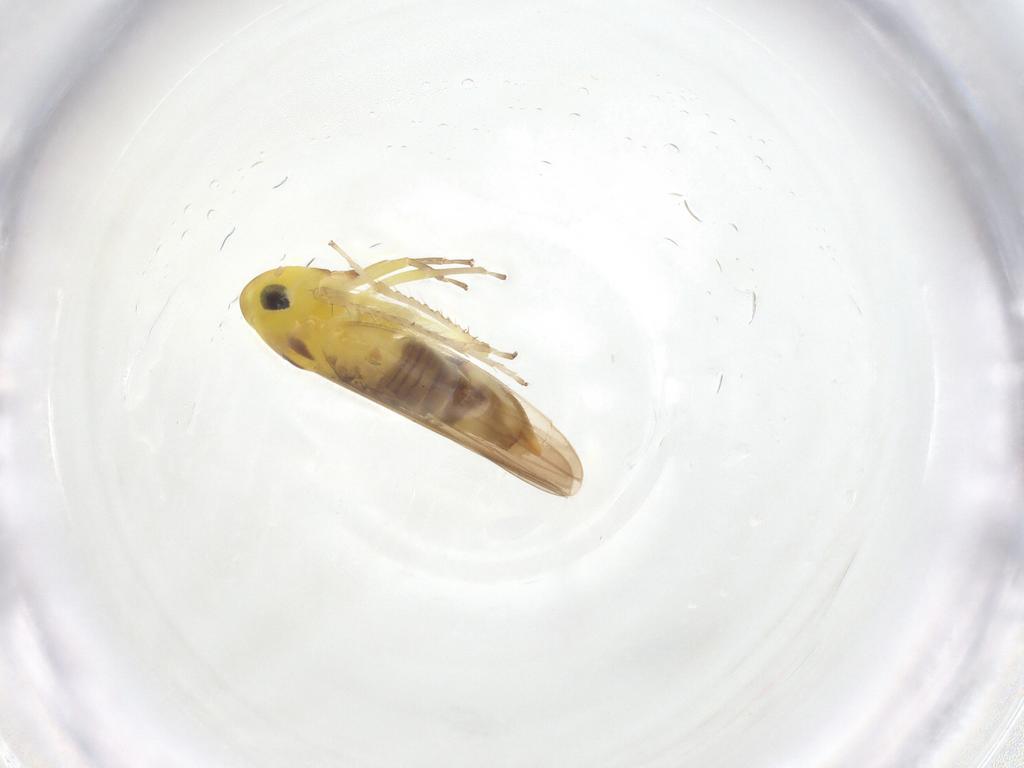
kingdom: Animalia
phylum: Arthropoda
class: Insecta
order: Hemiptera
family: Cicadellidae
